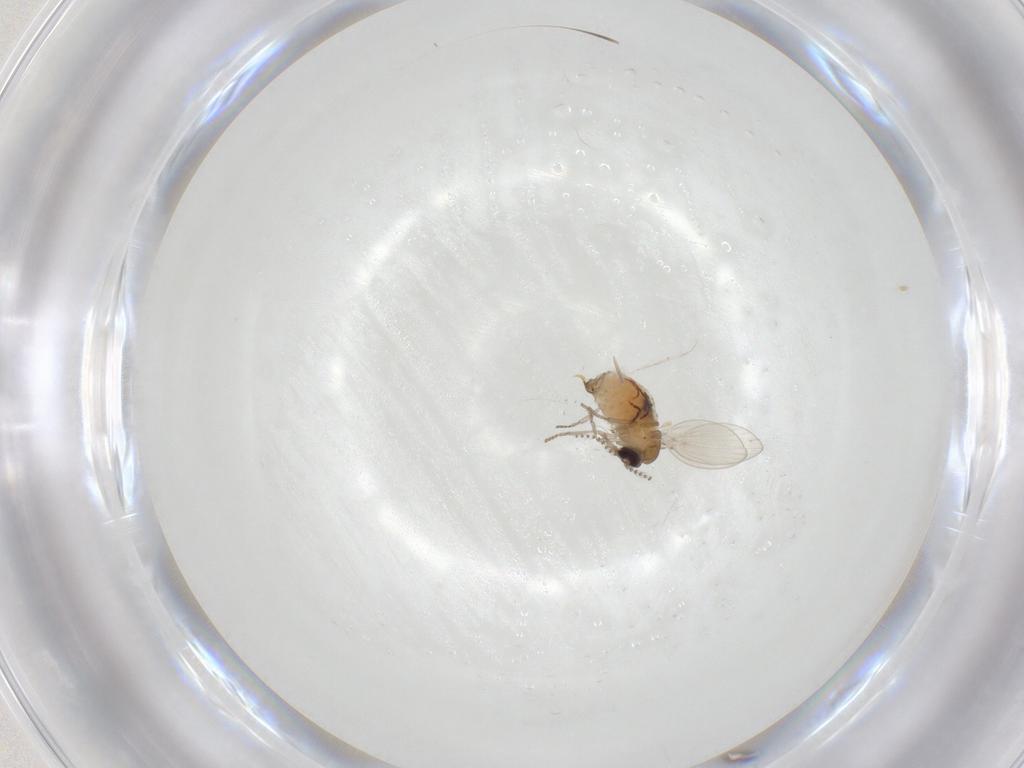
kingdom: Animalia
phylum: Arthropoda
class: Insecta
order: Diptera
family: Psychodidae
